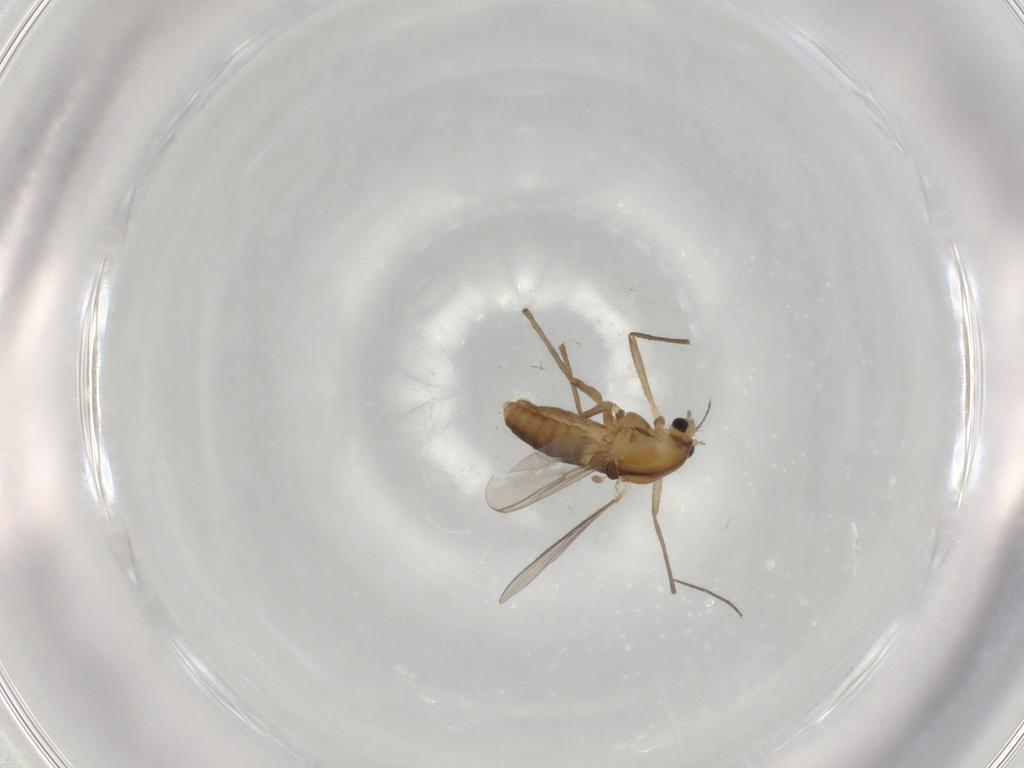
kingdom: Animalia
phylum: Arthropoda
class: Insecta
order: Diptera
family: Chironomidae
